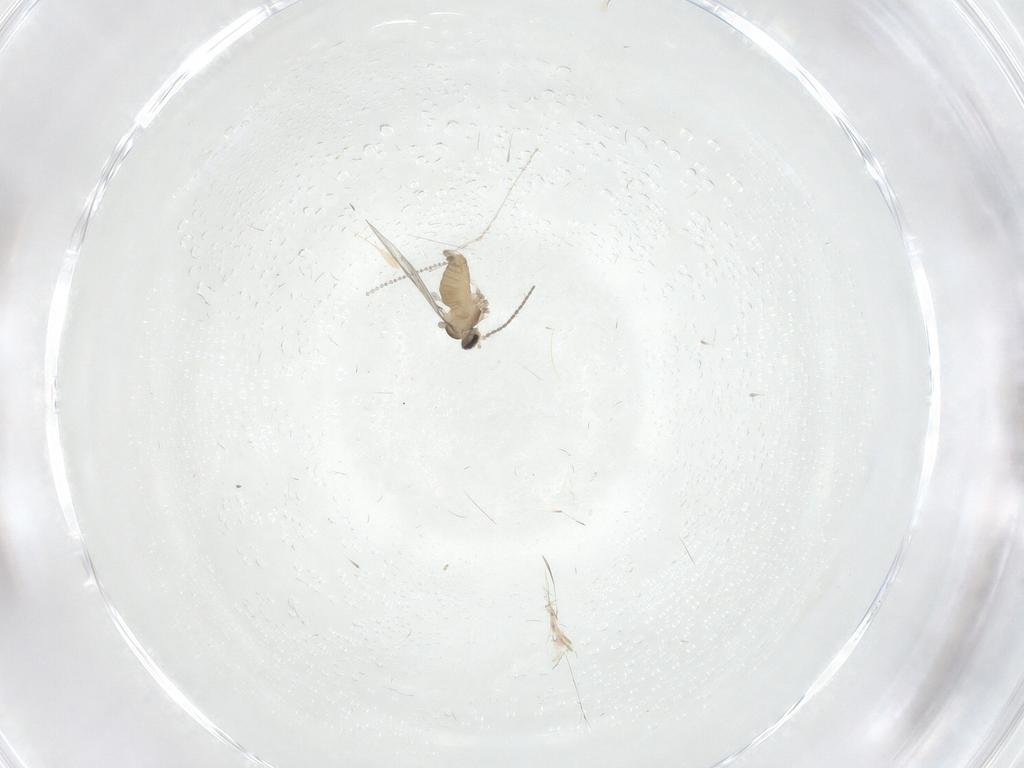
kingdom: Animalia
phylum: Arthropoda
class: Insecta
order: Diptera
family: Cecidomyiidae
